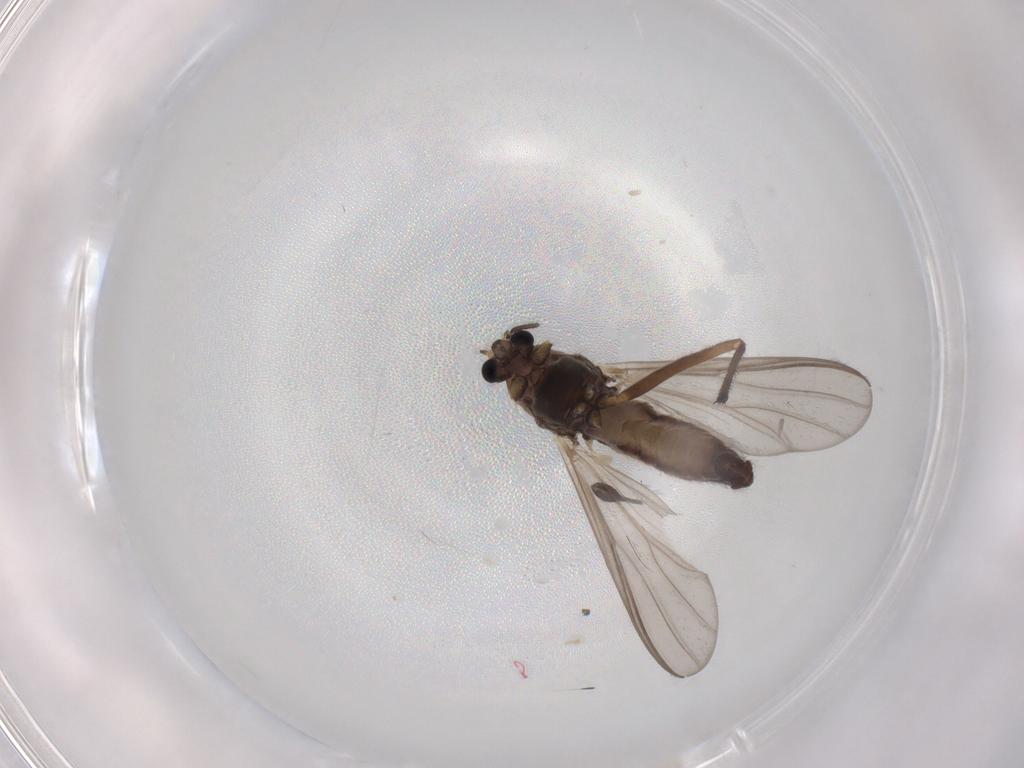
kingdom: Animalia
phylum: Arthropoda
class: Insecta
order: Diptera
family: Chironomidae
